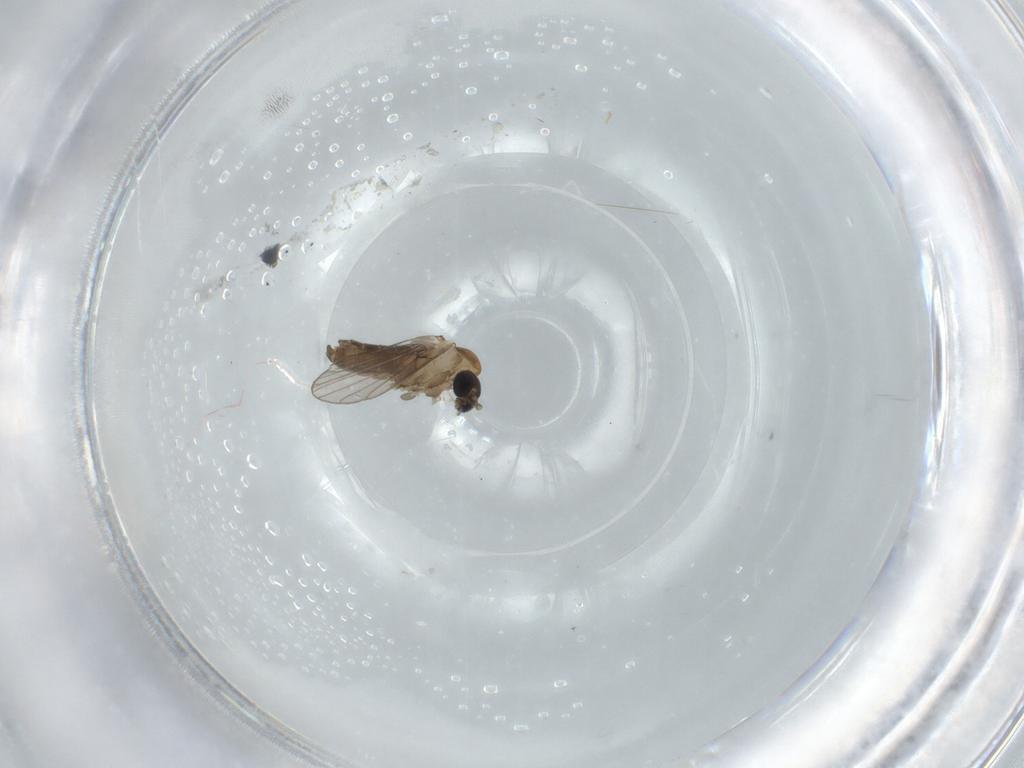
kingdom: Animalia
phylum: Arthropoda
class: Insecta
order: Diptera
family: Psychodidae
